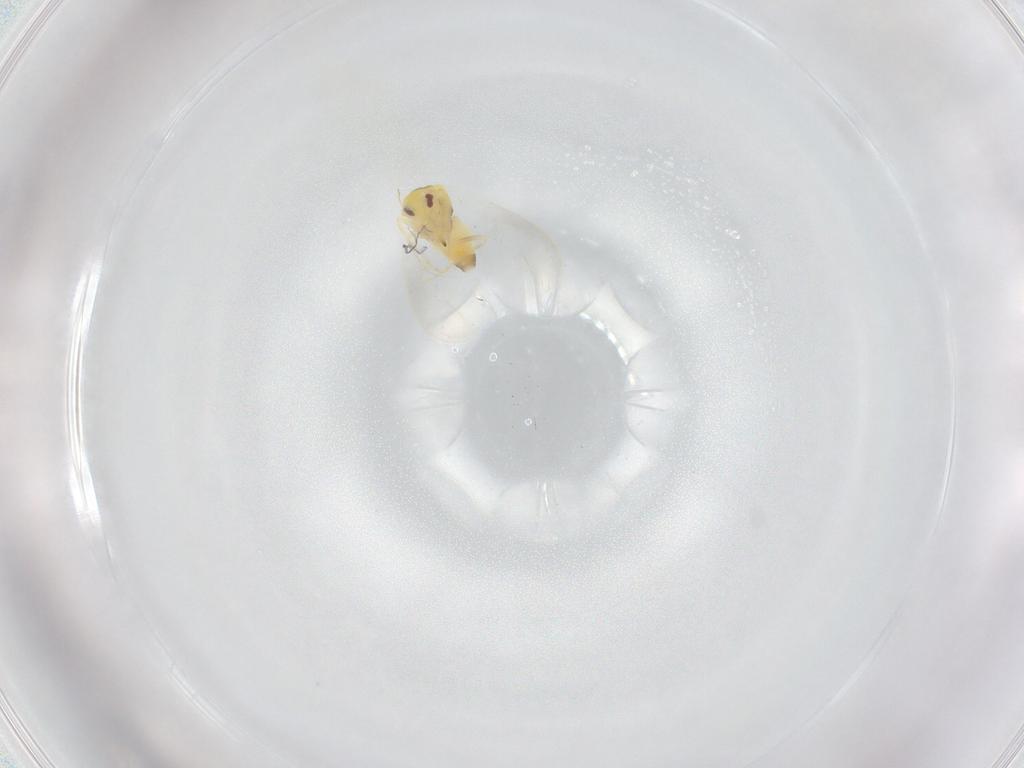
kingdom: Animalia
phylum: Arthropoda
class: Insecta
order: Hemiptera
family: Aleyrodidae
